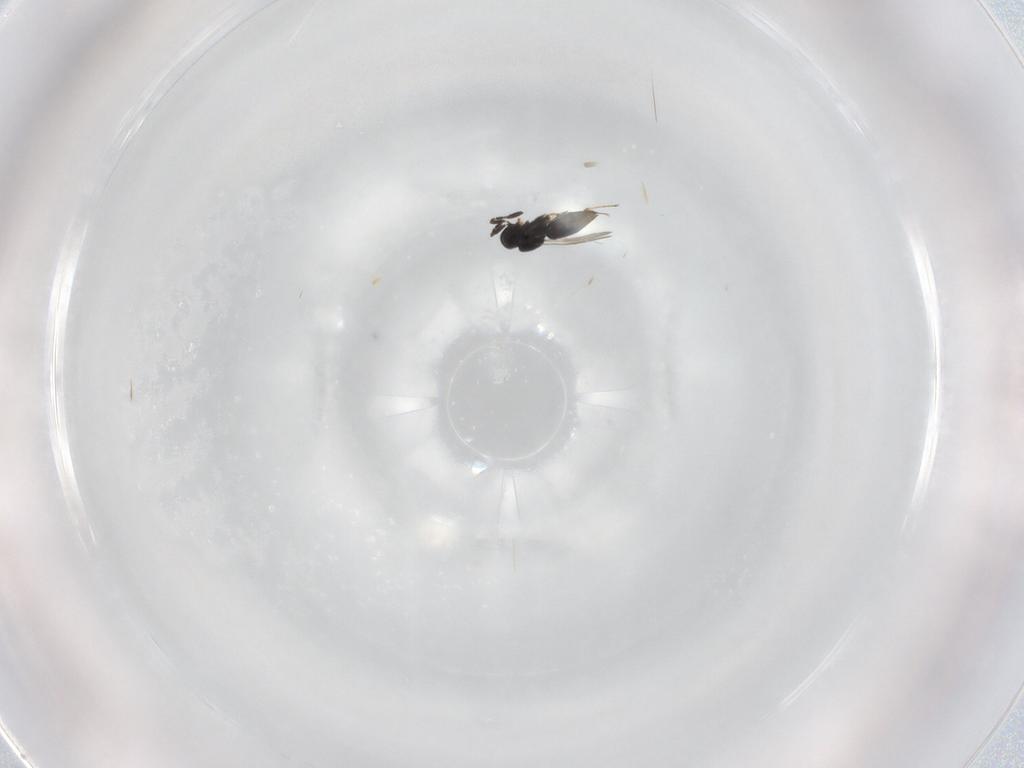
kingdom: Animalia
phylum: Arthropoda
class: Insecta
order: Hymenoptera
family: Scelionidae
